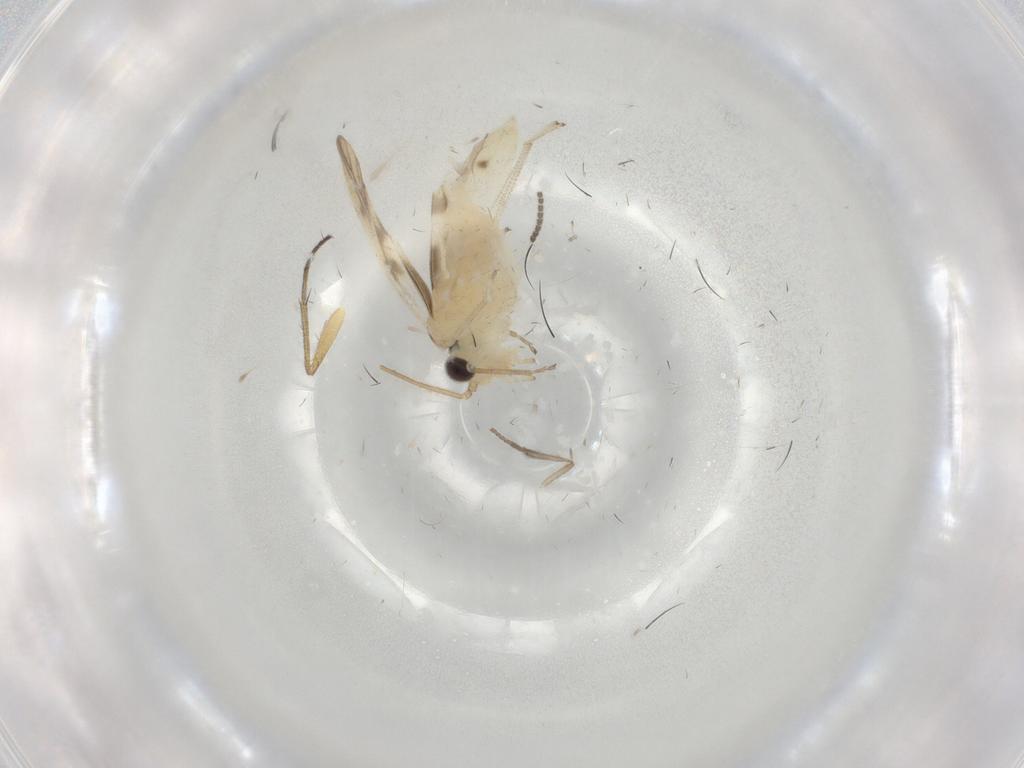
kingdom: Animalia
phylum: Arthropoda
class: Insecta
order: Psocodea
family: Caeciliusidae
